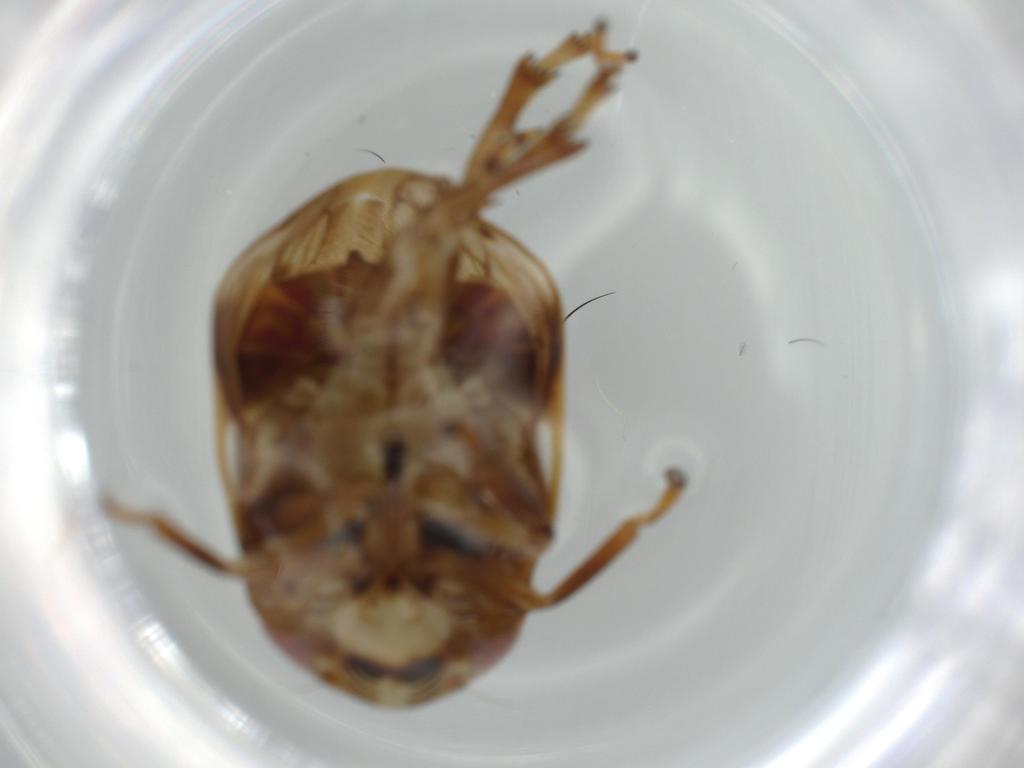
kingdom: Animalia
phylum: Arthropoda
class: Insecta
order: Hemiptera
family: Clastopteridae
